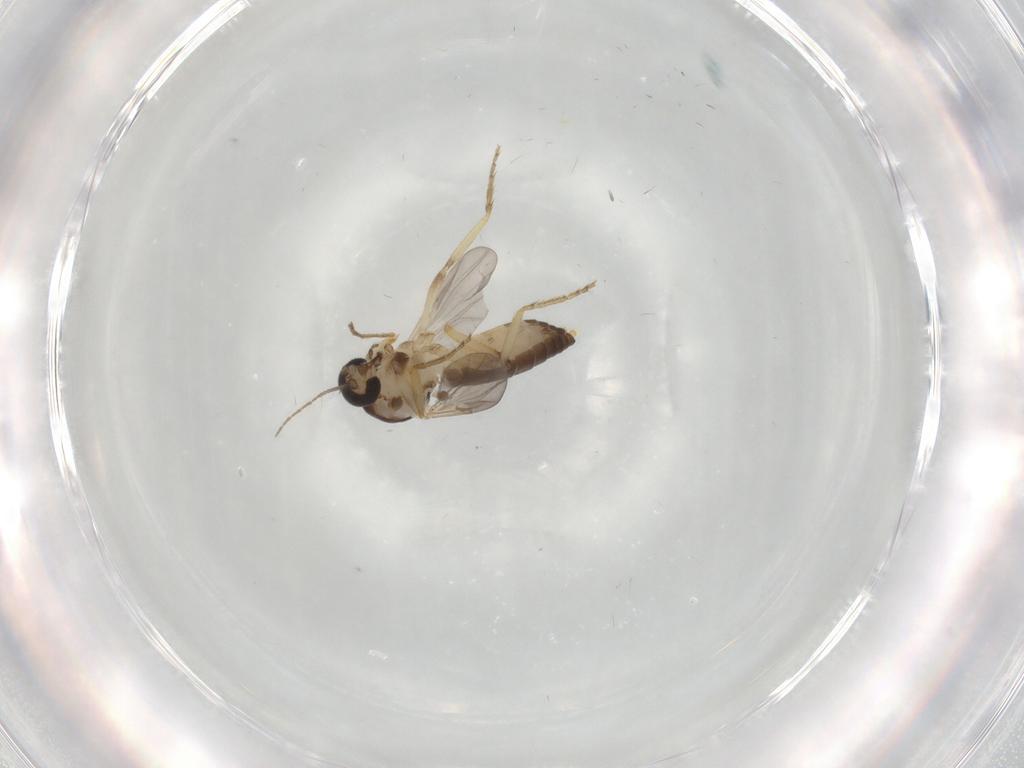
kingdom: Animalia
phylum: Arthropoda
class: Insecta
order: Diptera
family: Ceratopogonidae
